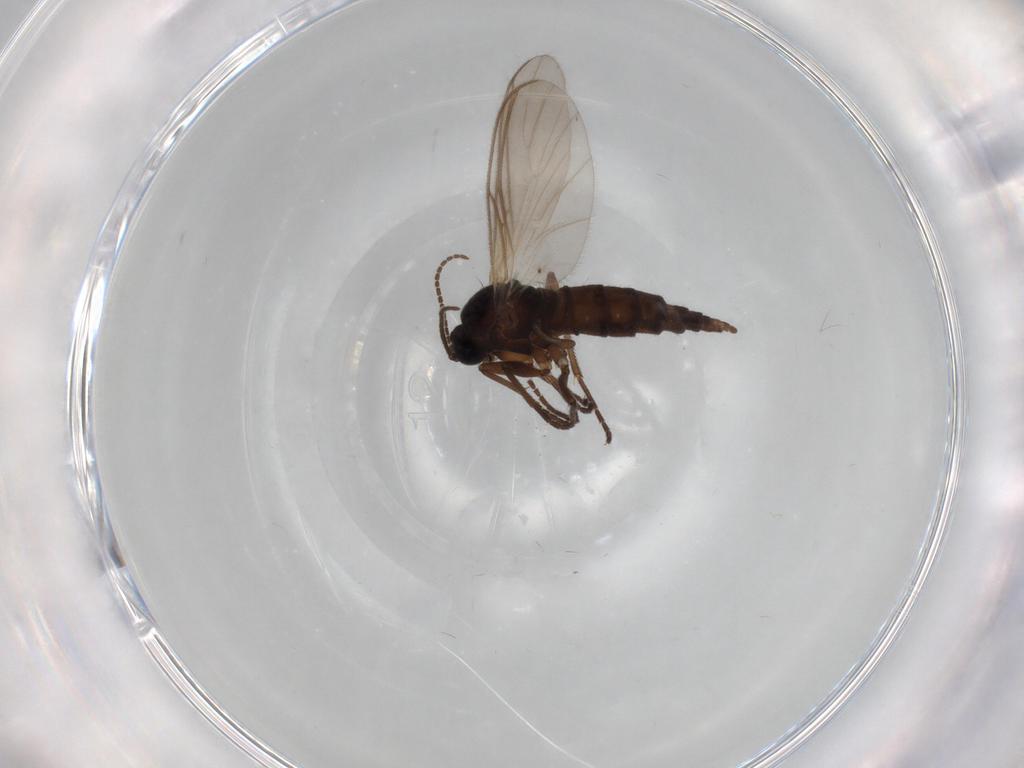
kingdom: Animalia
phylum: Arthropoda
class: Insecta
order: Diptera
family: Sciaridae
